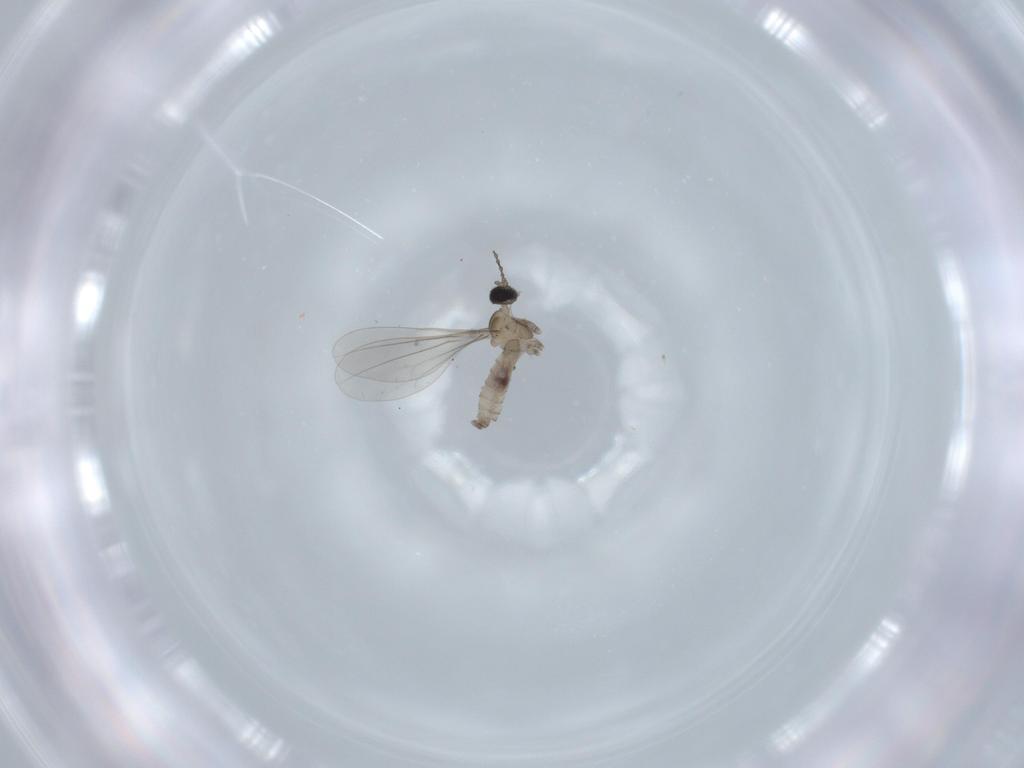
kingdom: Animalia
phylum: Arthropoda
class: Insecta
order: Diptera
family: Cecidomyiidae
